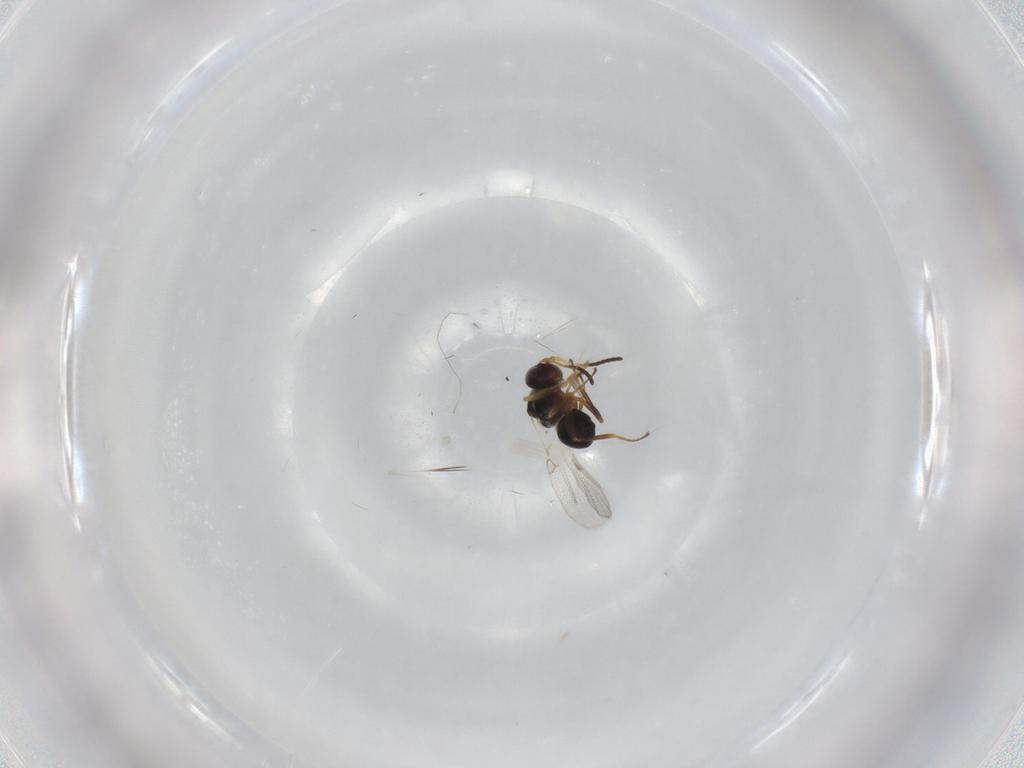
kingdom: Animalia
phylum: Arthropoda
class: Insecta
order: Hymenoptera
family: Figitidae
